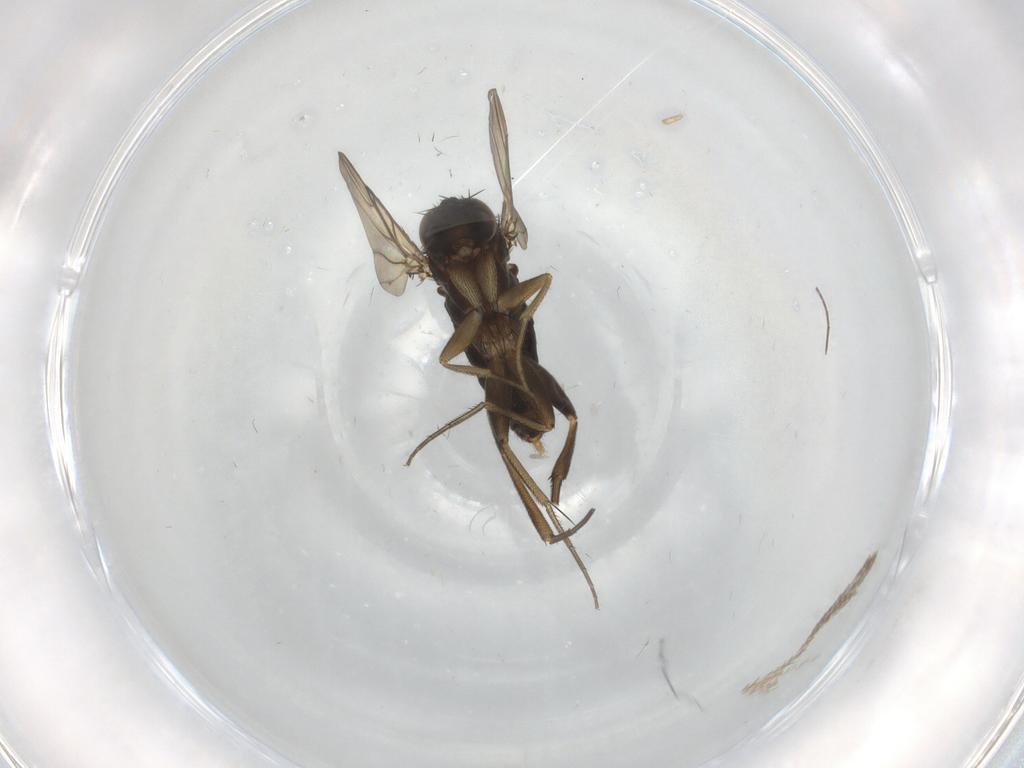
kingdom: Animalia
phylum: Arthropoda
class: Insecta
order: Diptera
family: Phoridae
